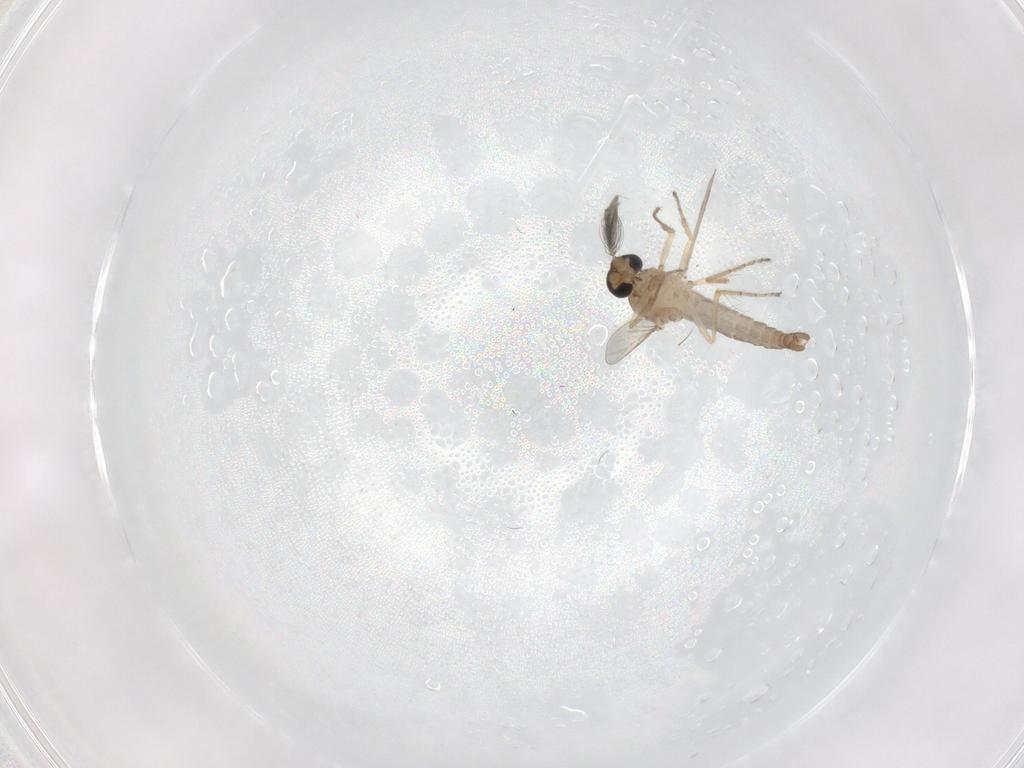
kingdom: Animalia
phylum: Arthropoda
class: Insecta
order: Diptera
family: Ceratopogonidae
